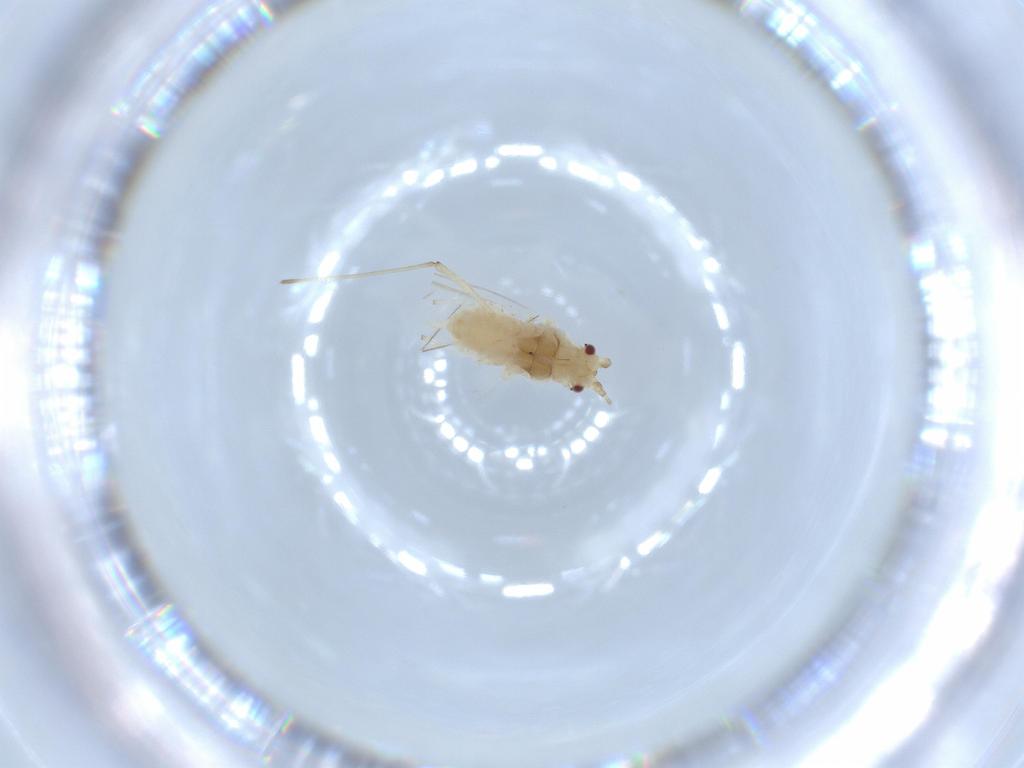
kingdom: Animalia
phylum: Arthropoda
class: Insecta
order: Hemiptera
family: Aphididae
